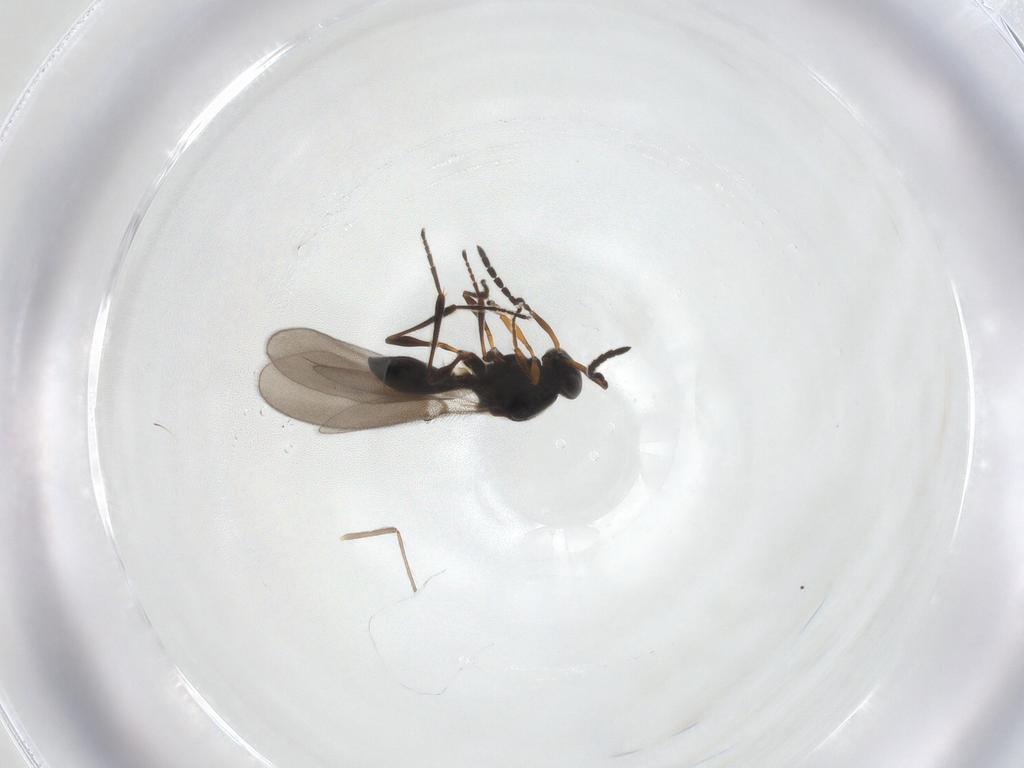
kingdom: Animalia
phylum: Arthropoda
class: Insecta
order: Hymenoptera
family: Platygastridae
